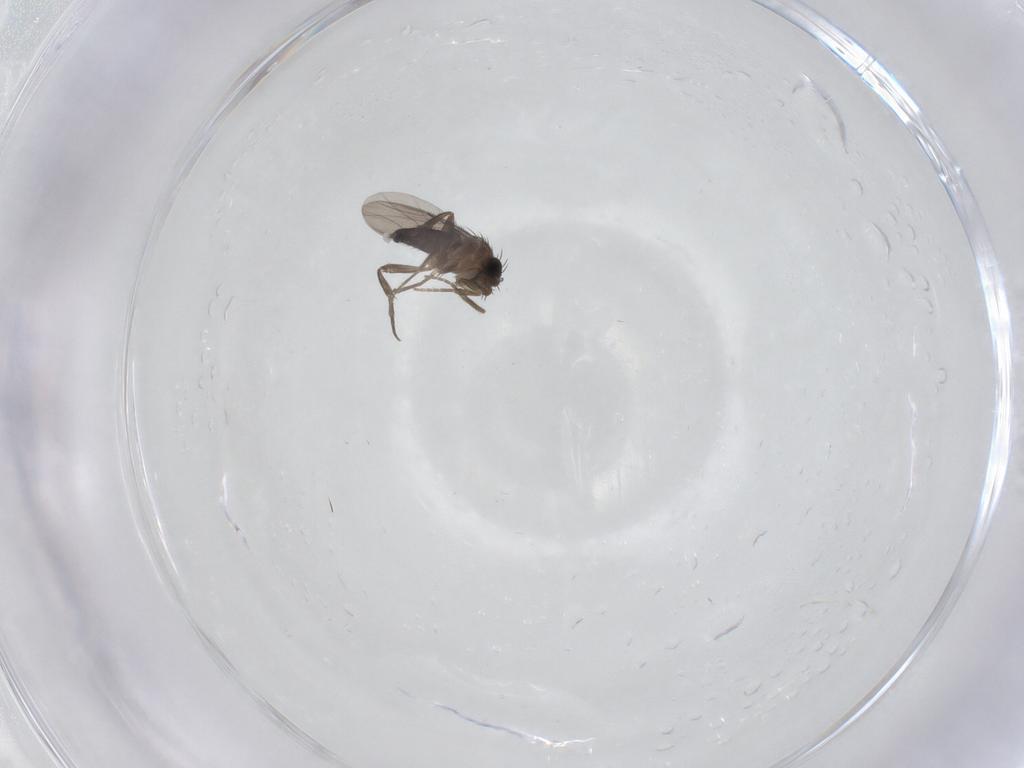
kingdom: Animalia
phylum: Arthropoda
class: Insecta
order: Diptera
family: Phoridae
